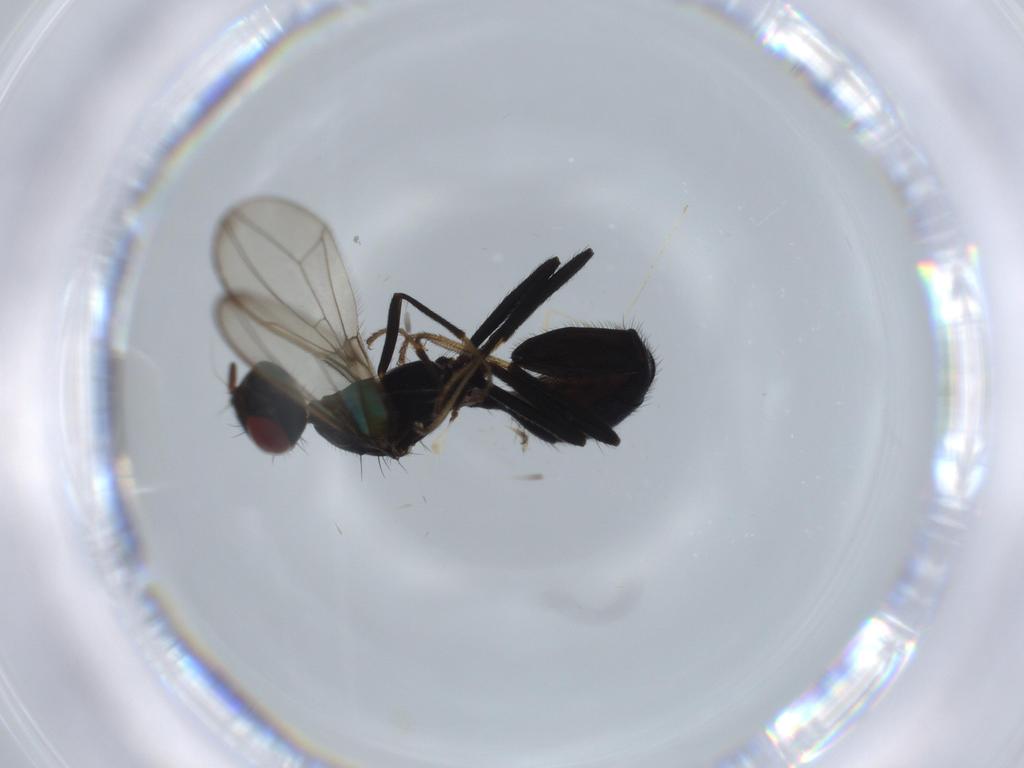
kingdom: Animalia
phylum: Arthropoda
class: Insecta
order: Diptera
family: Richardiidae
